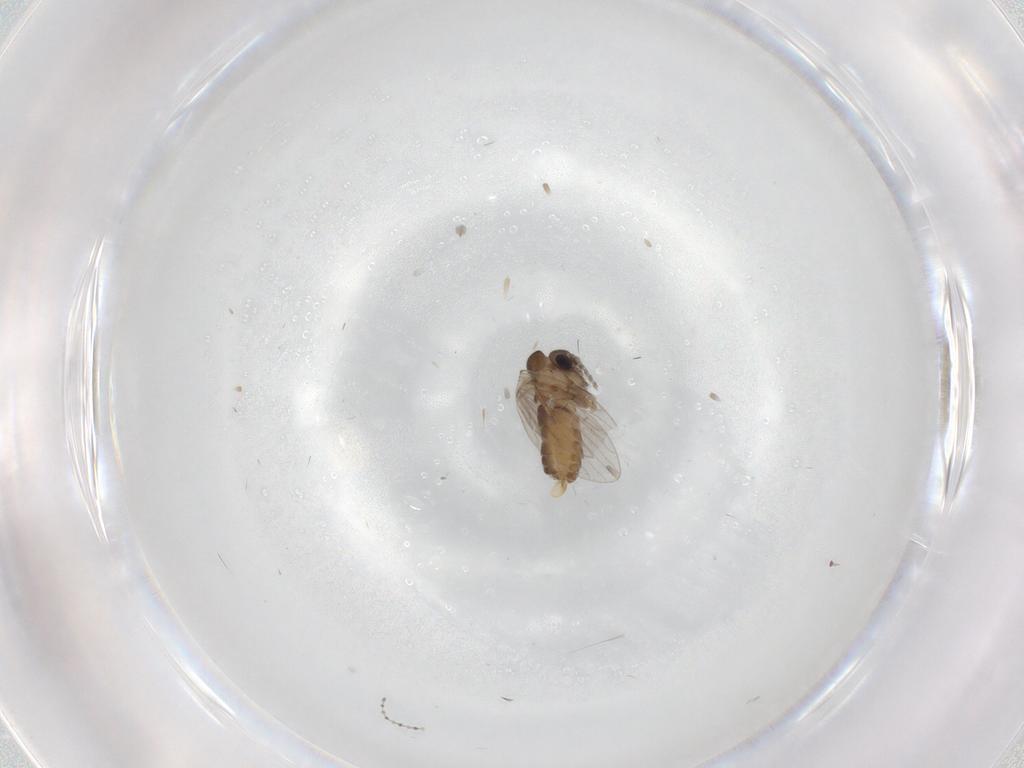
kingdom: Animalia
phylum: Arthropoda
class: Insecta
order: Diptera
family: Cecidomyiidae
